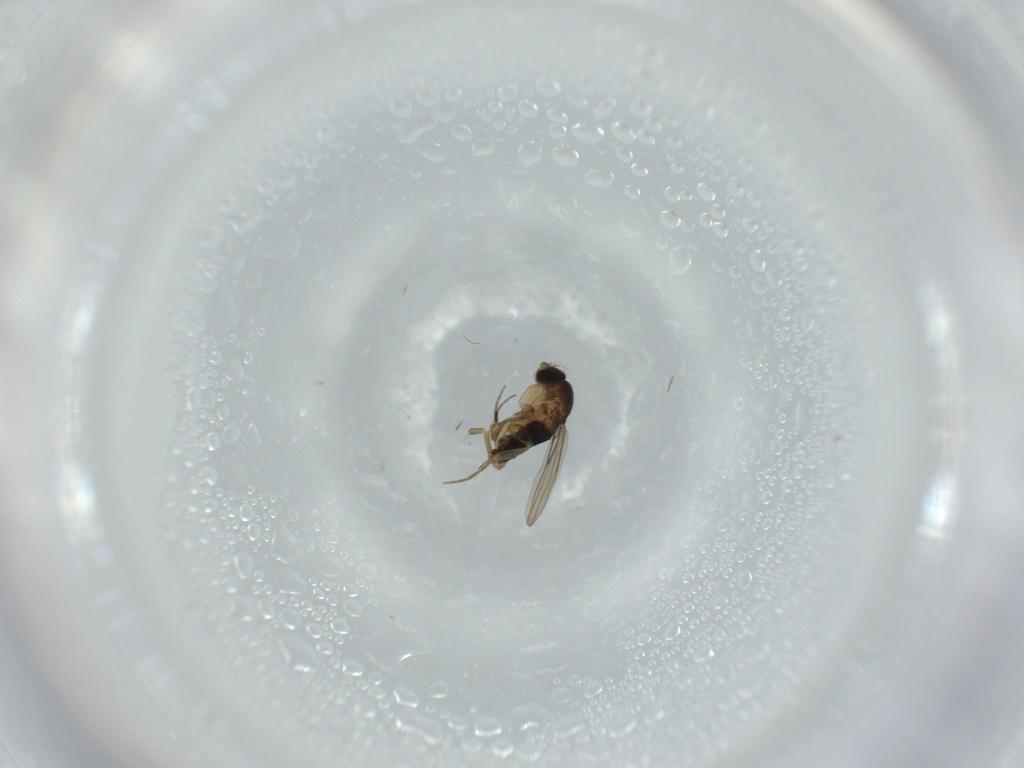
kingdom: Animalia
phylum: Arthropoda
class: Insecta
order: Diptera
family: Phoridae
